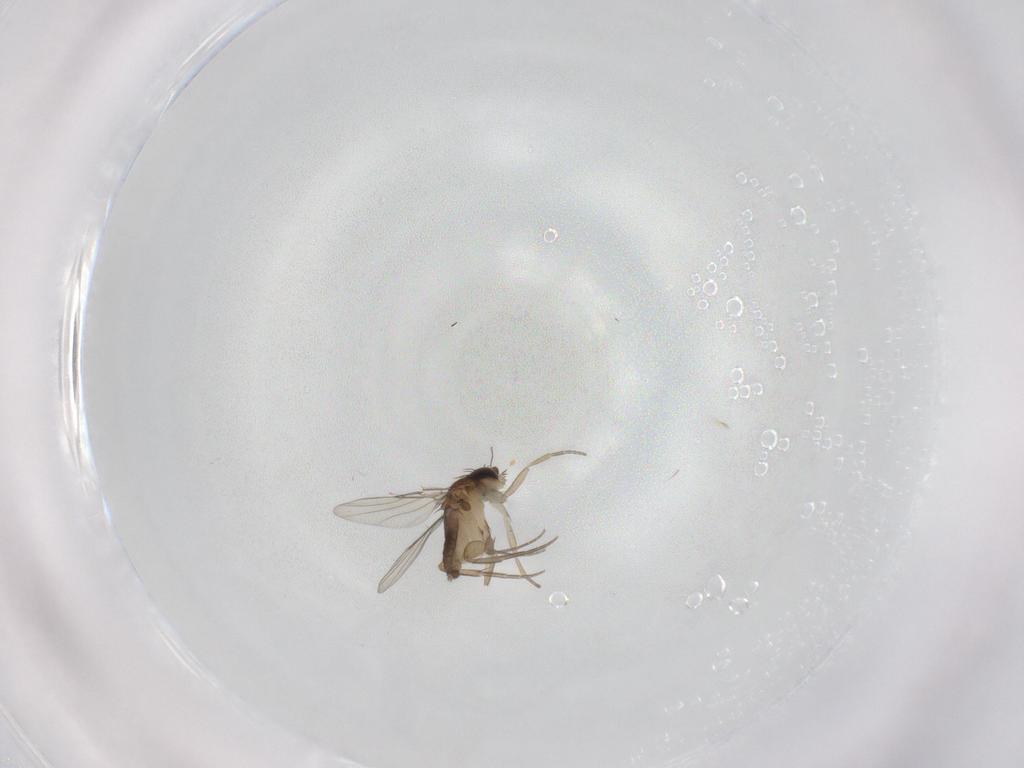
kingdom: Animalia
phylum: Arthropoda
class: Insecta
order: Diptera
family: Phoridae
